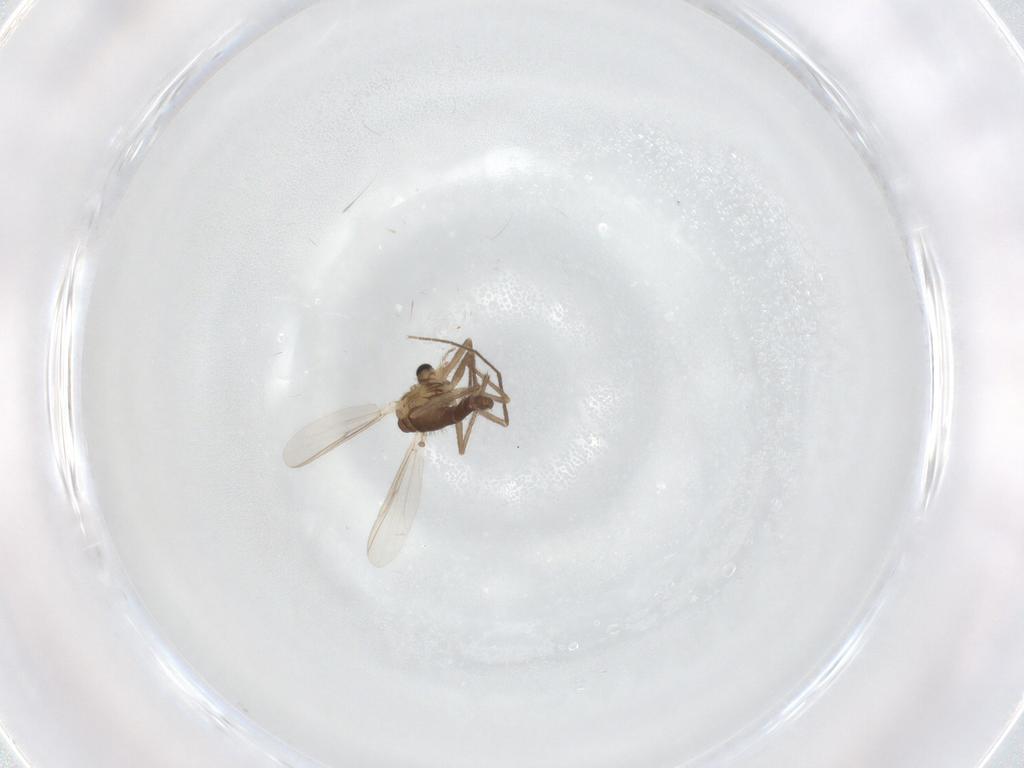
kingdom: Animalia
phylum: Arthropoda
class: Insecta
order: Diptera
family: Chironomidae
